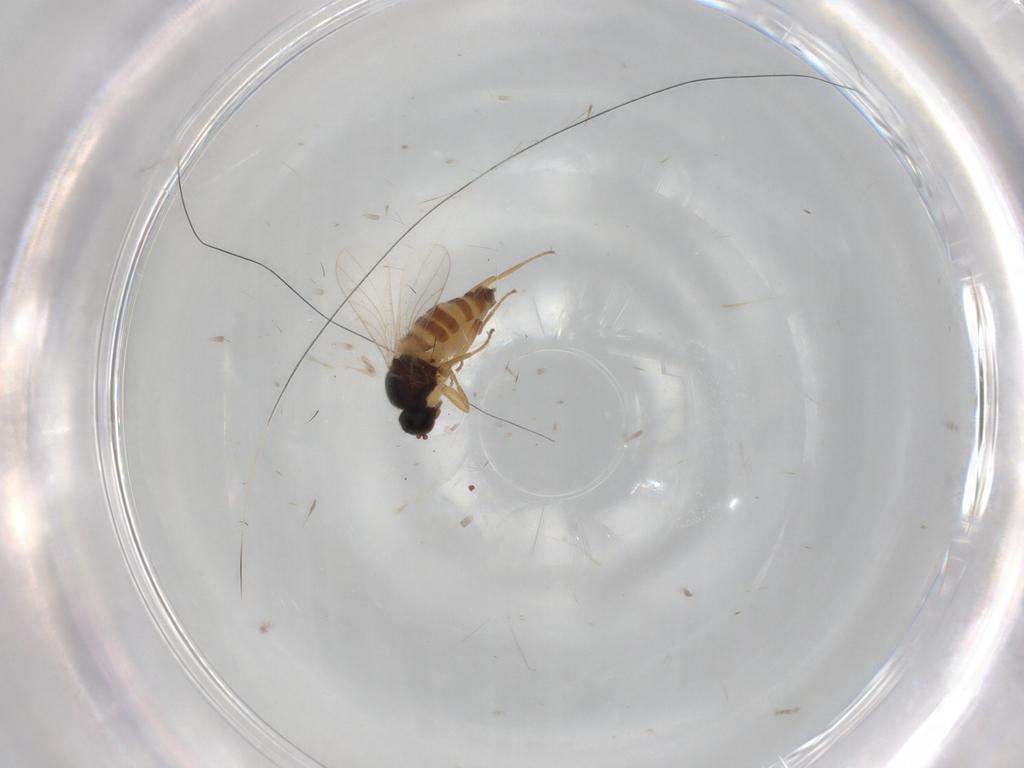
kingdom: Animalia
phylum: Arthropoda
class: Insecta
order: Diptera
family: Hybotidae
